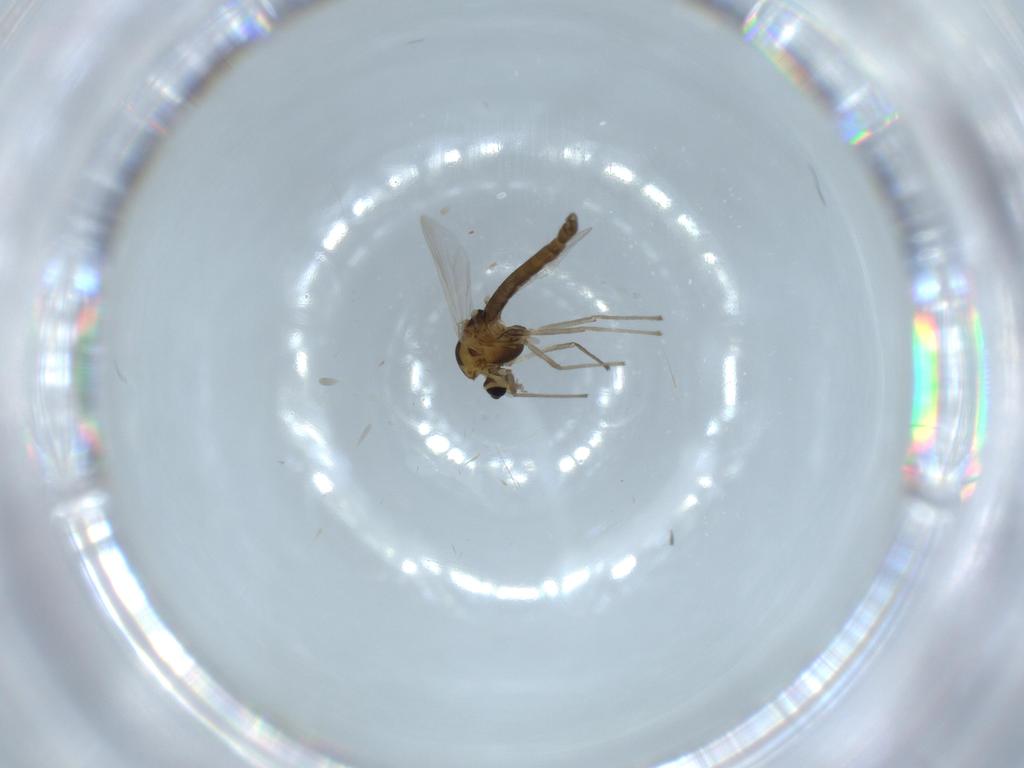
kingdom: Animalia
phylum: Arthropoda
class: Insecta
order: Diptera
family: Chironomidae
